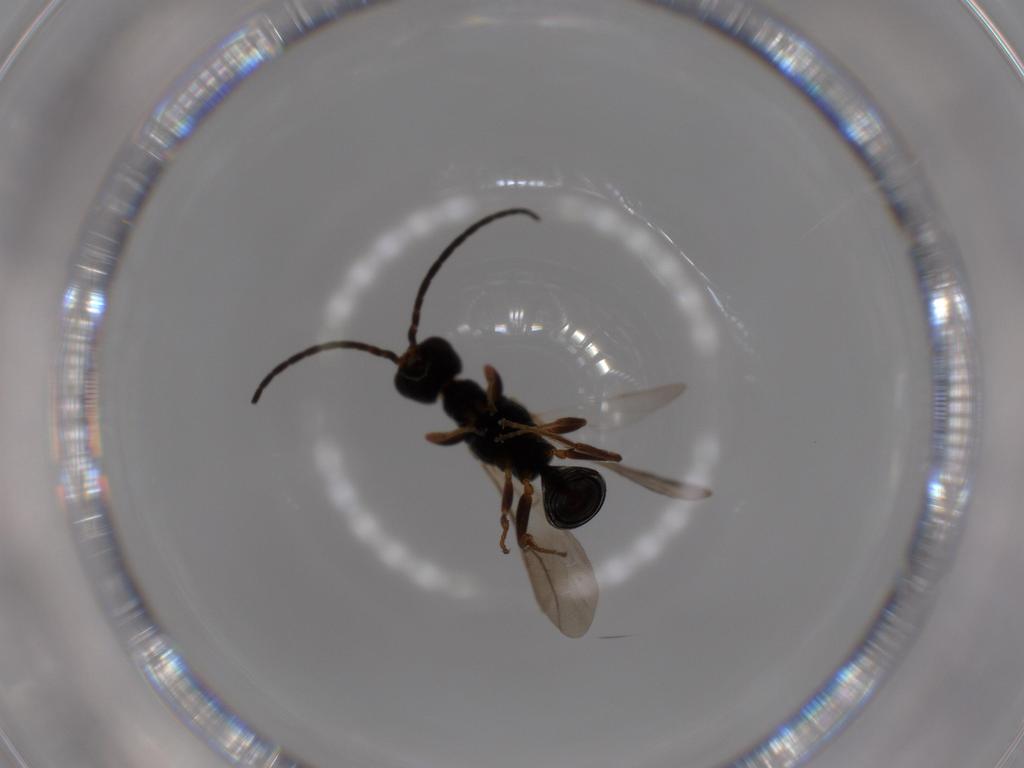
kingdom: Animalia
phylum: Arthropoda
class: Insecta
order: Hymenoptera
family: Bethylidae
